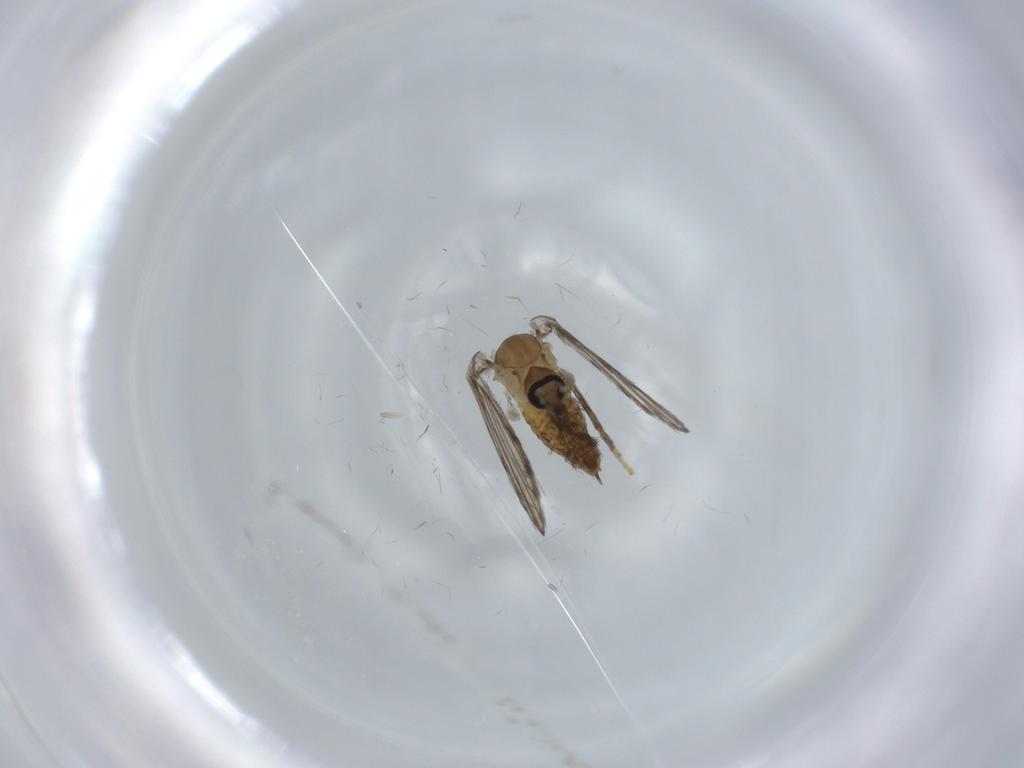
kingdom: Animalia
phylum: Arthropoda
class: Insecta
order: Diptera
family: Psychodidae
